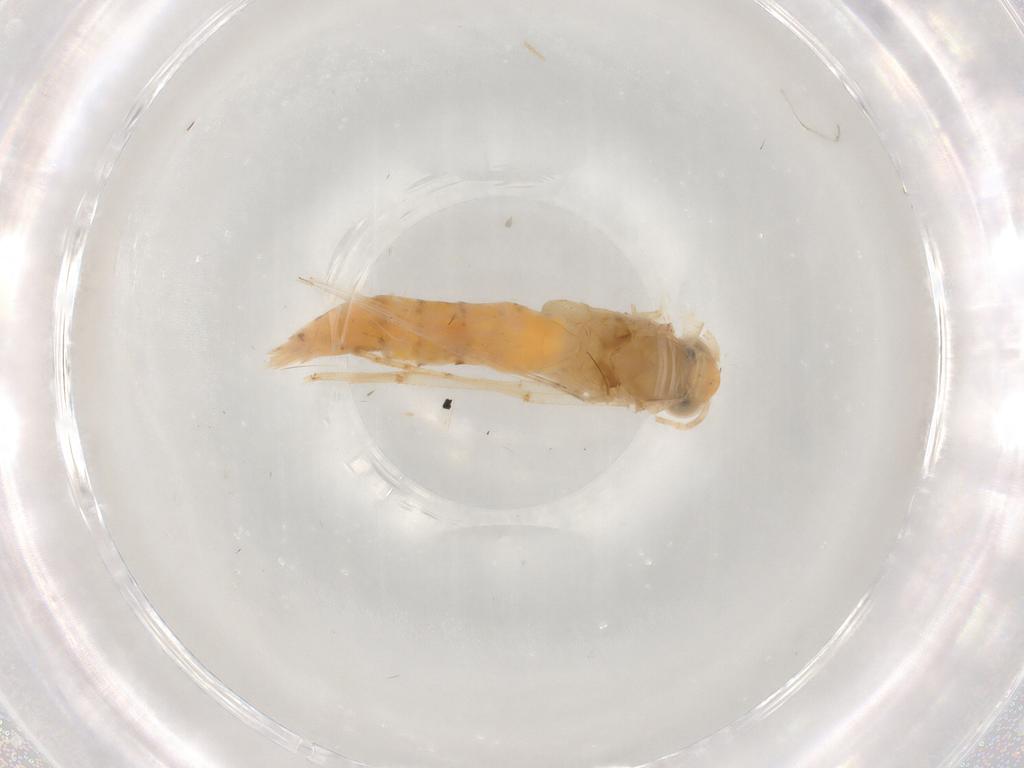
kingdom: Animalia
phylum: Arthropoda
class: Insecta
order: Lepidoptera
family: Argyresthiidae
